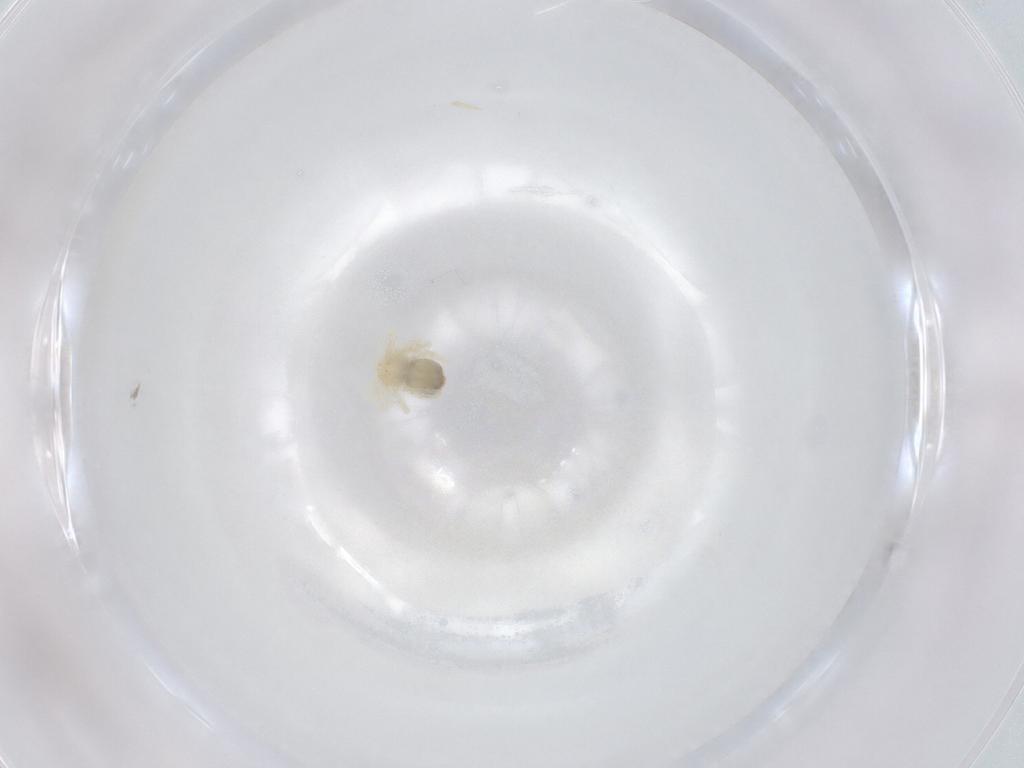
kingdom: Animalia
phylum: Arthropoda
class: Arachnida
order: Trombidiformes
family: Anystidae
